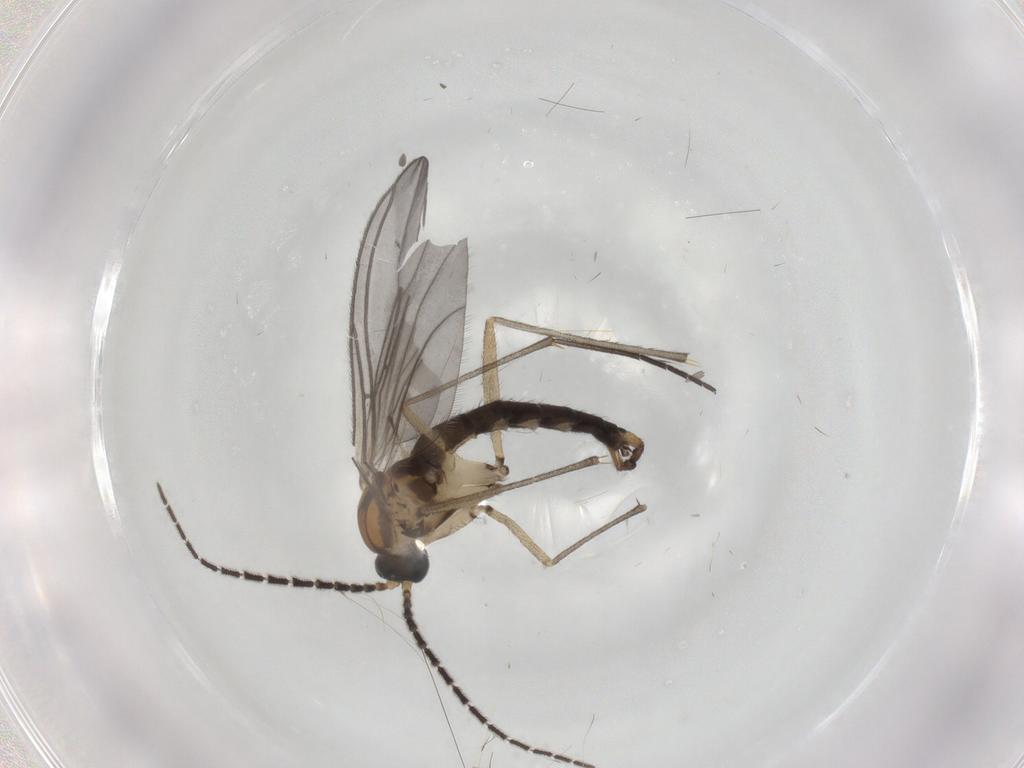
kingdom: Animalia
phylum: Arthropoda
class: Insecta
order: Diptera
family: Sciaridae
